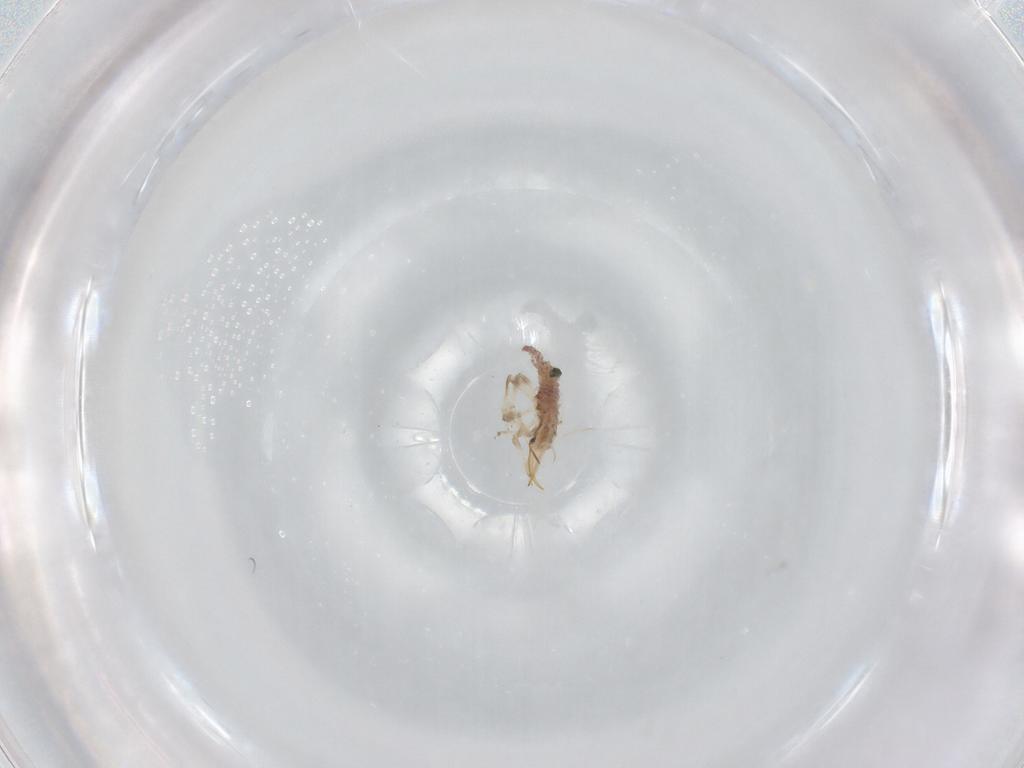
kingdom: Animalia
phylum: Arthropoda
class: Insecta
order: Neuroptera
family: Chrysopidae
